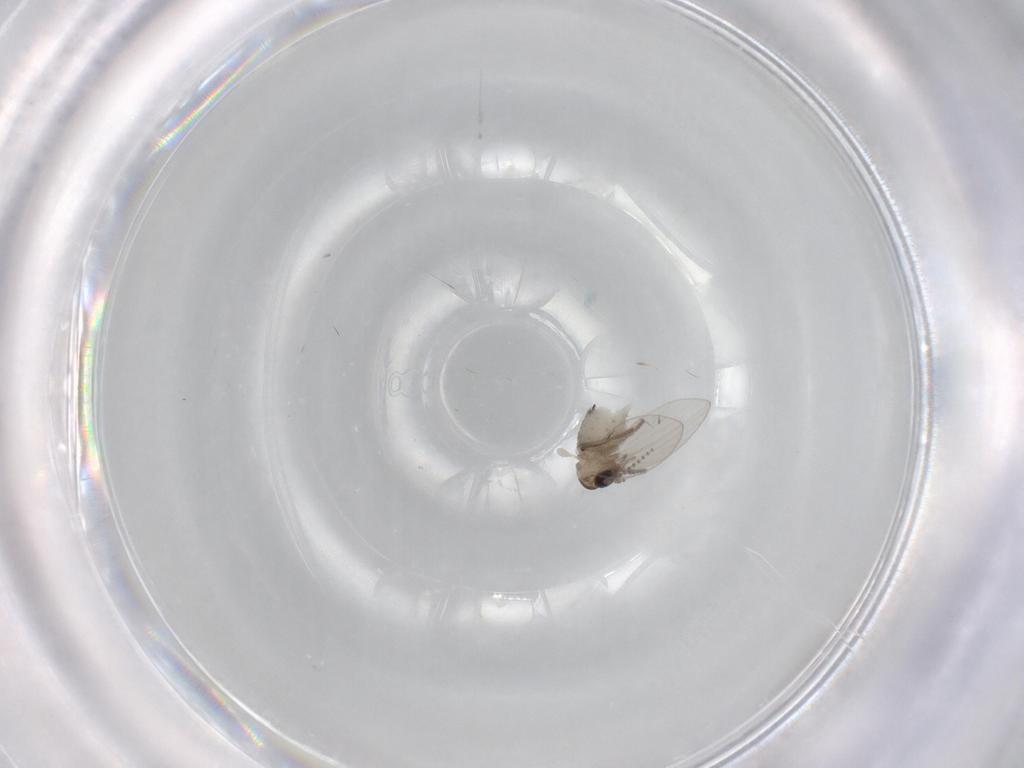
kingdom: Animalia
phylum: Arthropoda
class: Insecta
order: Diptera
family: Psychodidae
